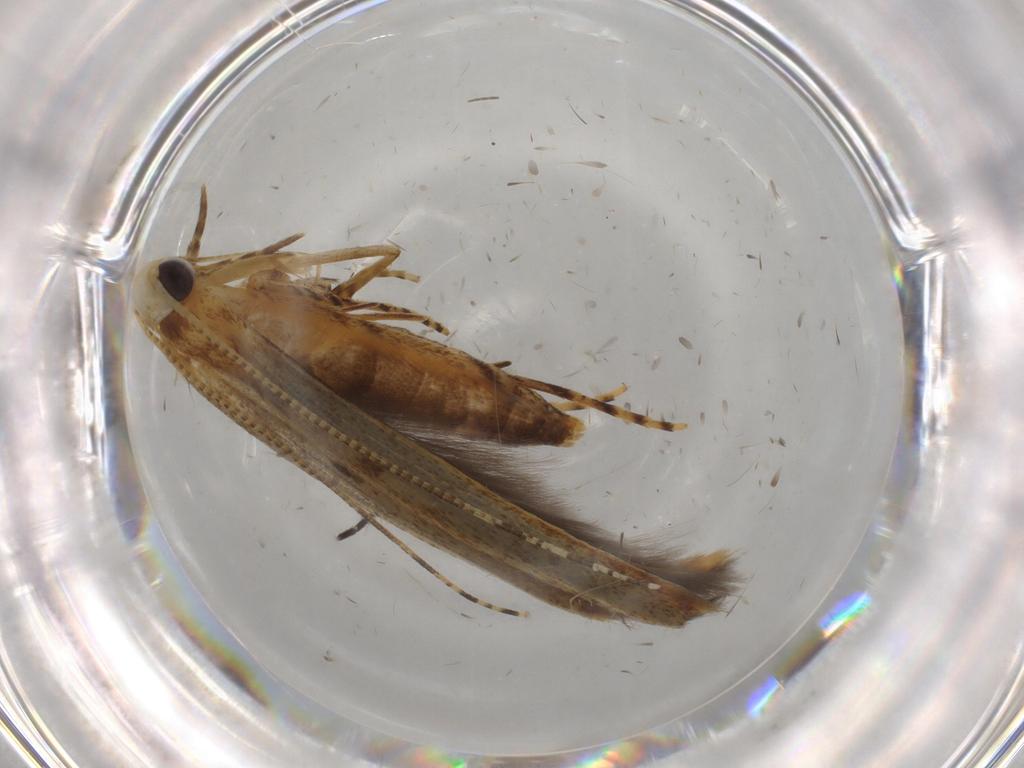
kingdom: Animalia
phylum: Arthropoda
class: Insecta
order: Lepidoptera
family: Batrachedridae
